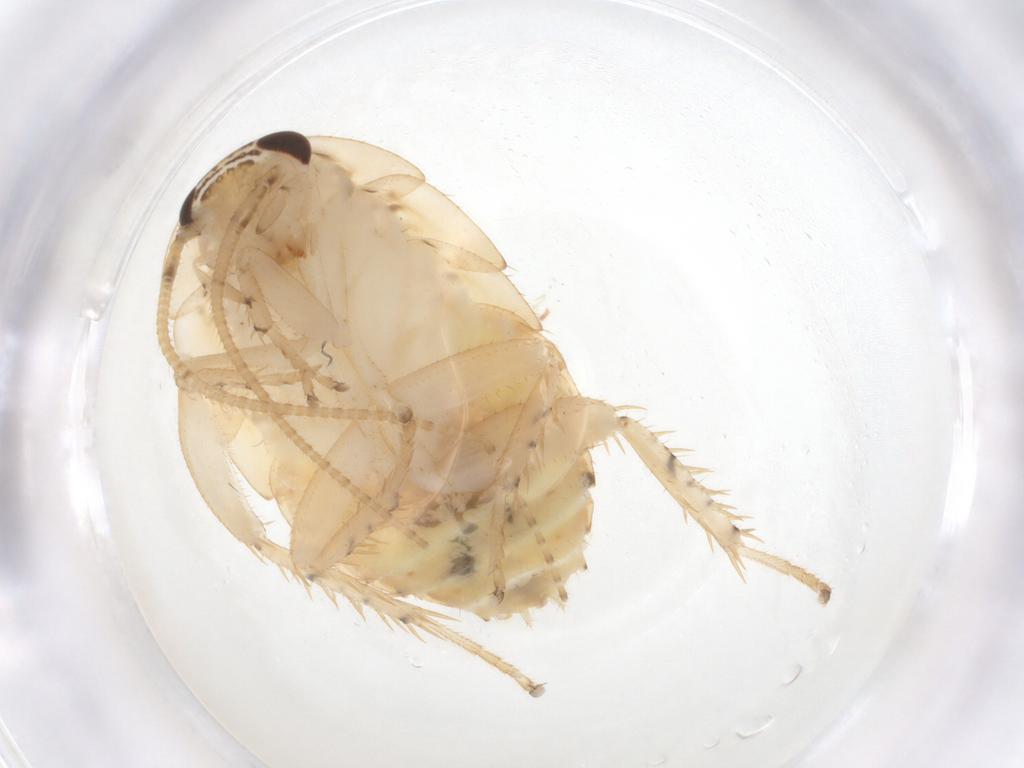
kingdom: Animalia
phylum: Arthropoda
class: Insecta
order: Blattodea
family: Ectobiidae
